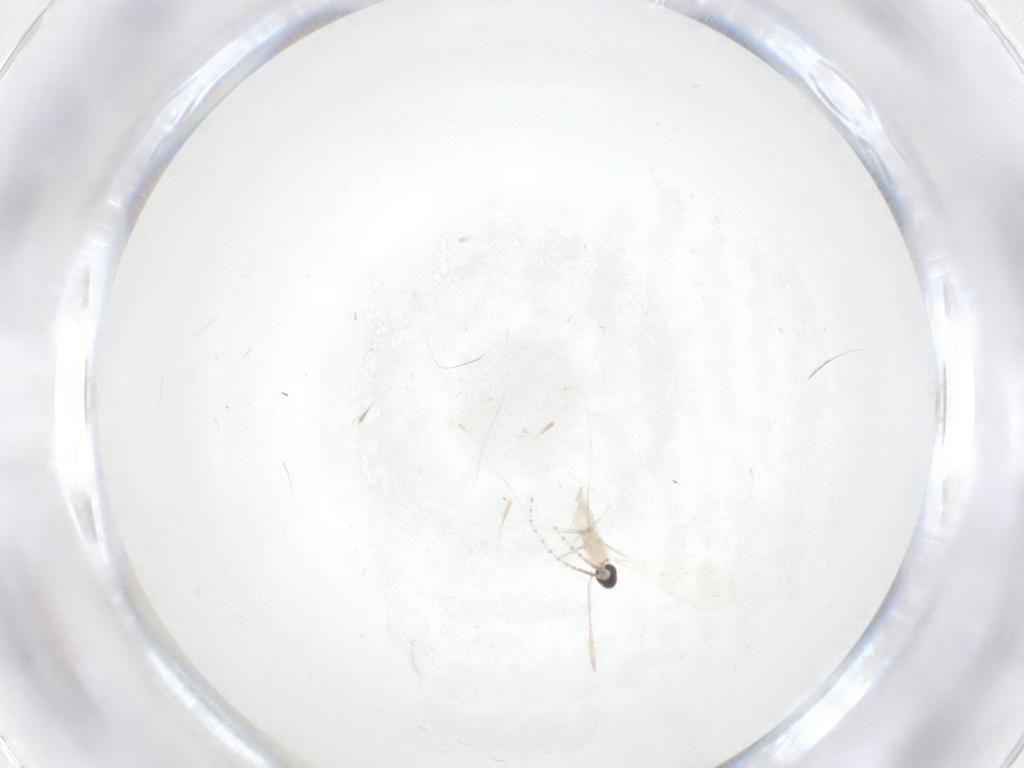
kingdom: Animalia
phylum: Arthropoda
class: Insecta
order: Diptera
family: Cecidomyiidae
